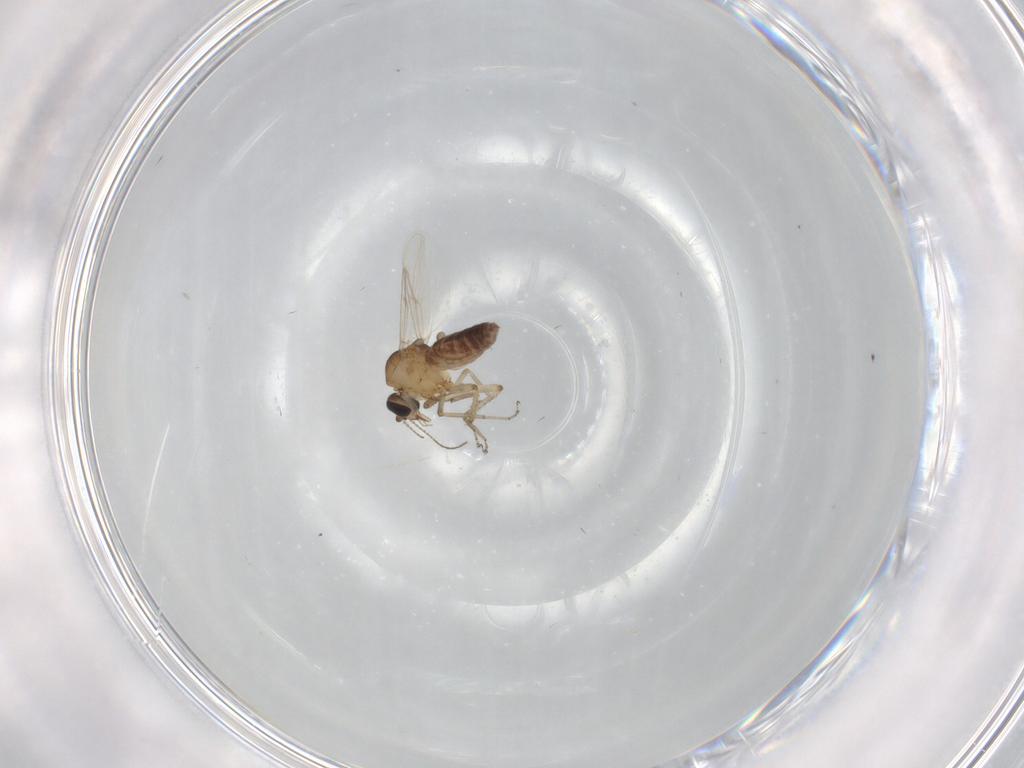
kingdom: Animalia
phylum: Arthropoda
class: Insecta
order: Diptera
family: Ceratopogonidae
